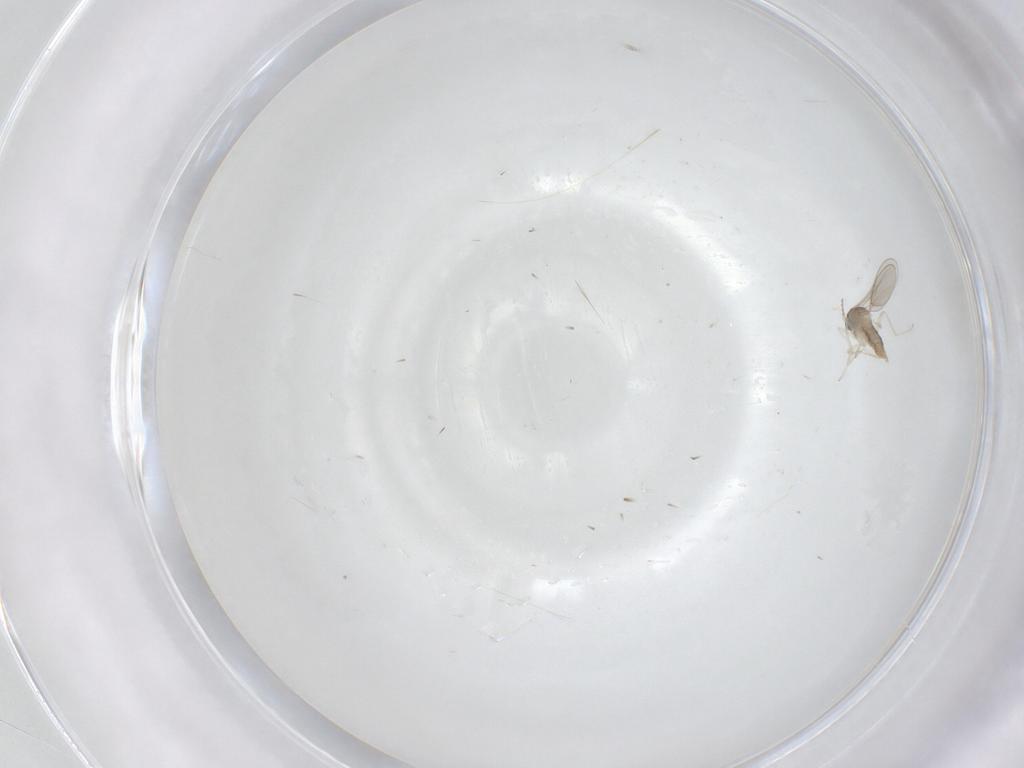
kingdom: Animalia
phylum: Arthropoda
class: Insecta
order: Diptera
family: Cecidomyiidae
